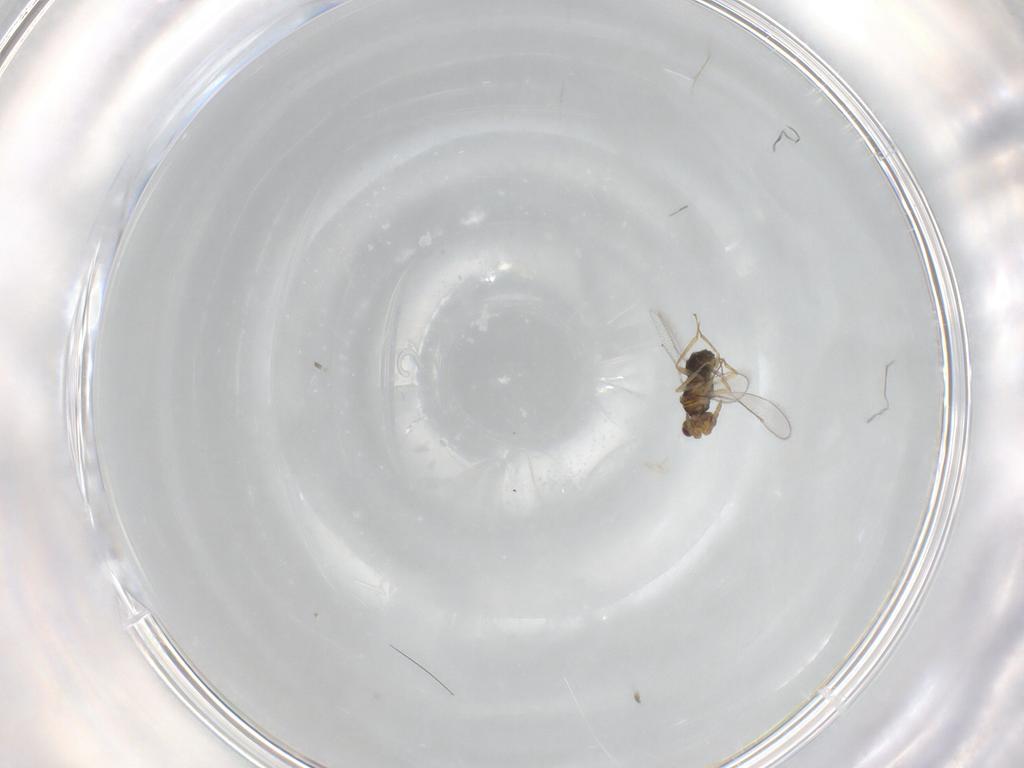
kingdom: Animalia
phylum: Arthropoda
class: Insecta
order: Hymenoptera
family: Aphelinidae
